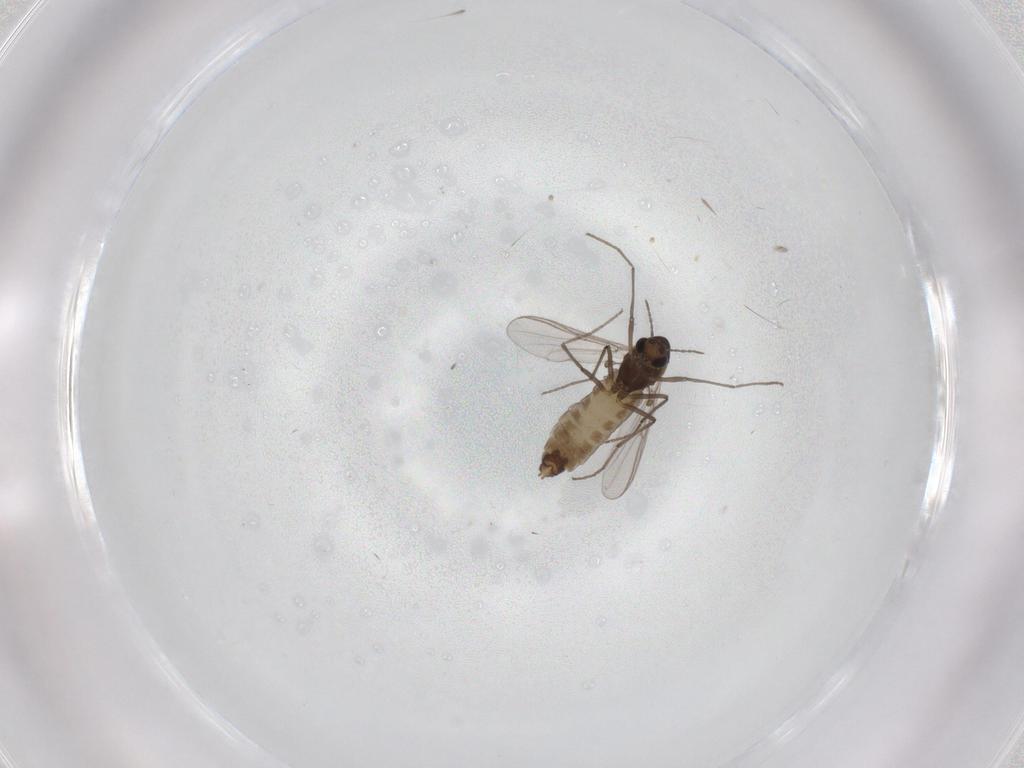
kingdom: Animalia
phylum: Arthropoda
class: Insecta
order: Diptera
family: Chironomidae
